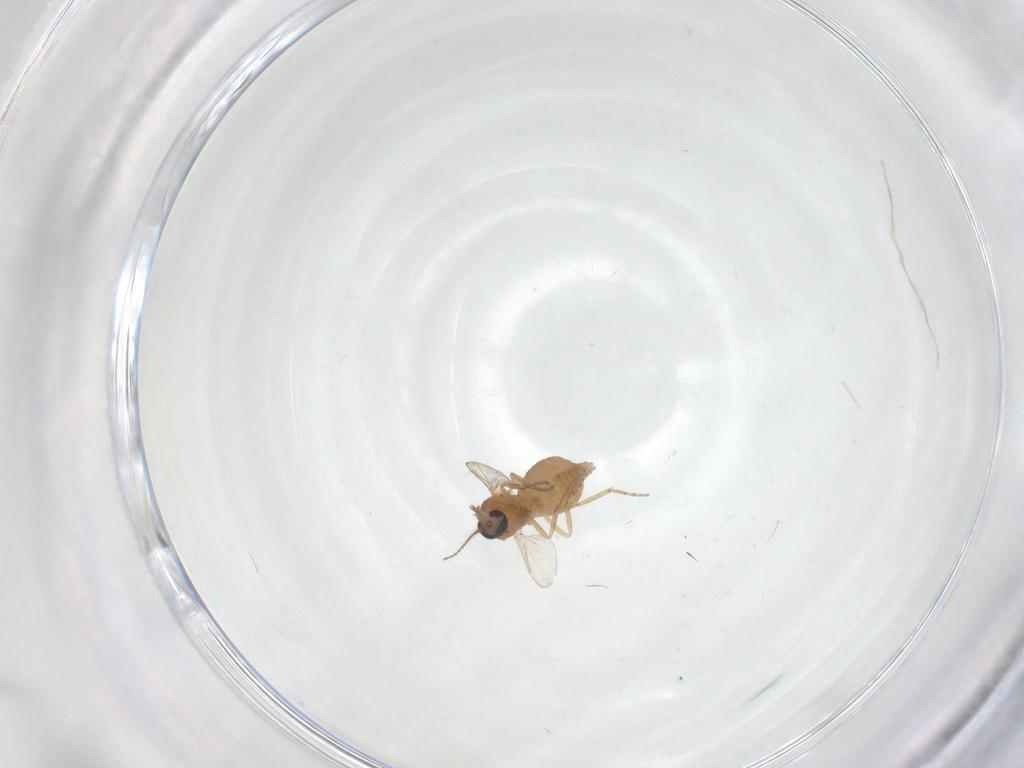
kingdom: Animalia
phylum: Arthropoda
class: Insecta
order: Diptera
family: Ceratopogonidae
